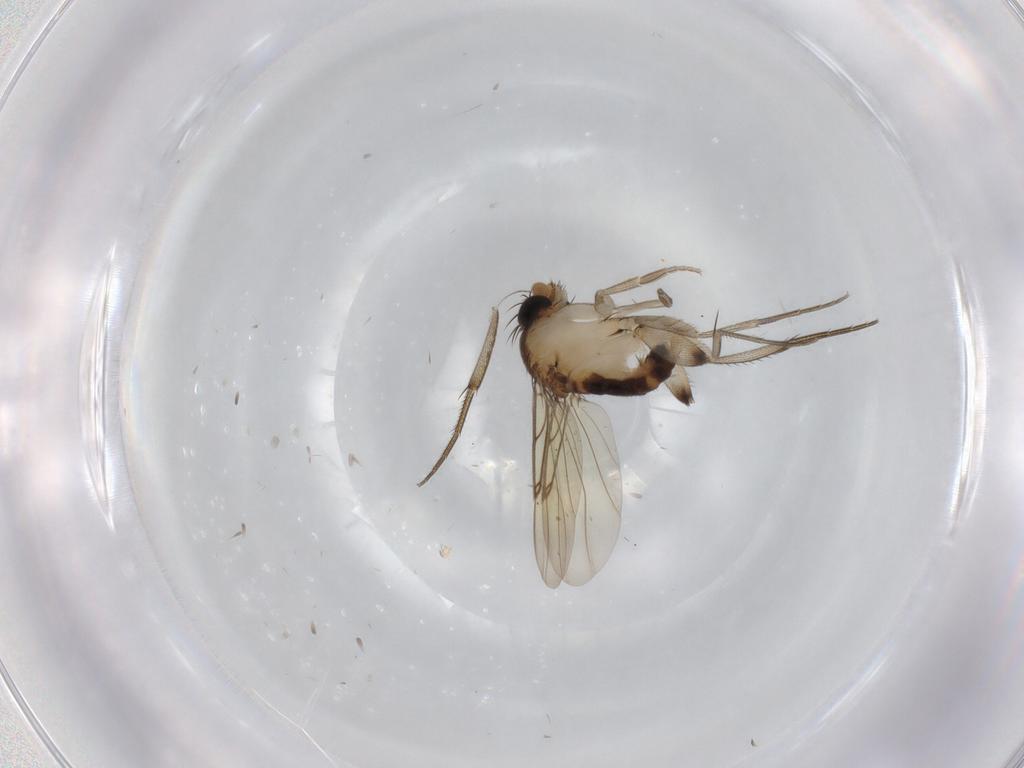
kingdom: Animalia
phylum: Arthropoda
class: Insecta
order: Diptera
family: Phoridae
